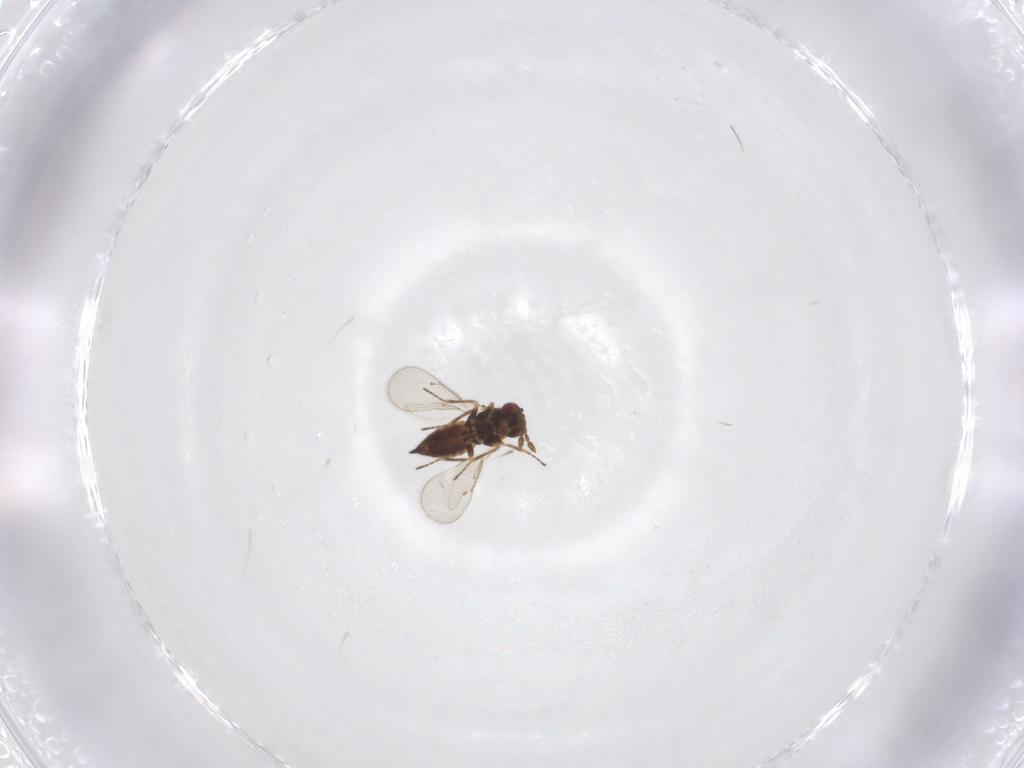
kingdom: Animalia
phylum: Arthropoda
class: Insecta
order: Hymenoptera
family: Eulophidae
